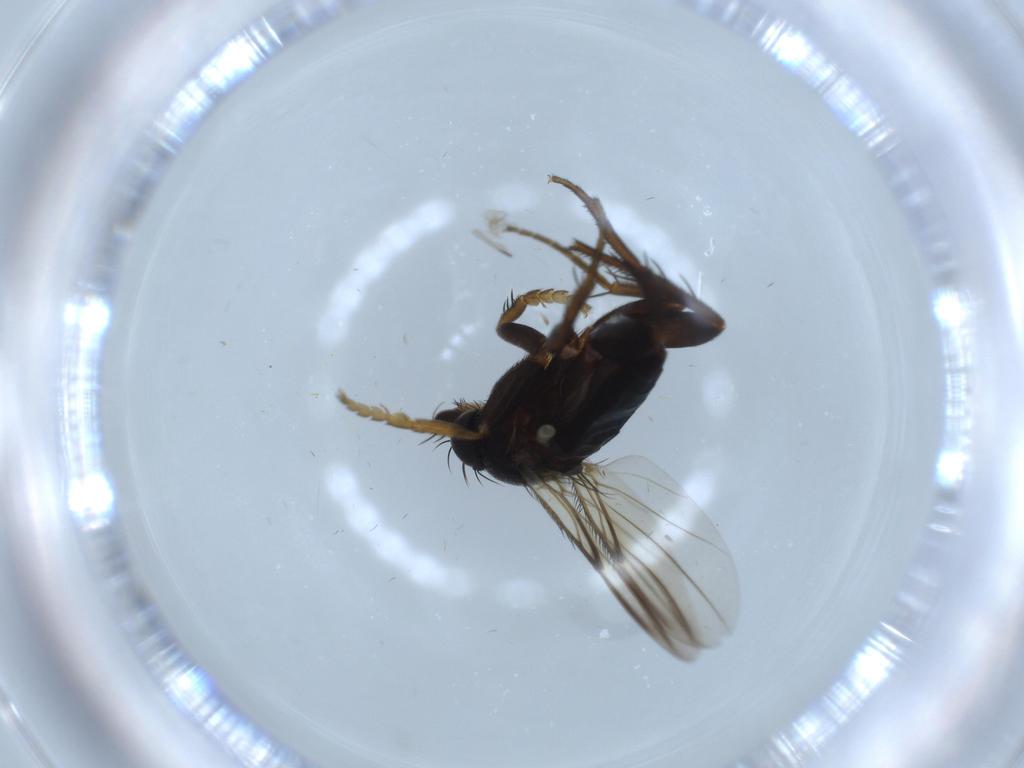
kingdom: Animalia
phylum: Arthropoda
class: Insecta
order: Diptera
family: Phoridae
